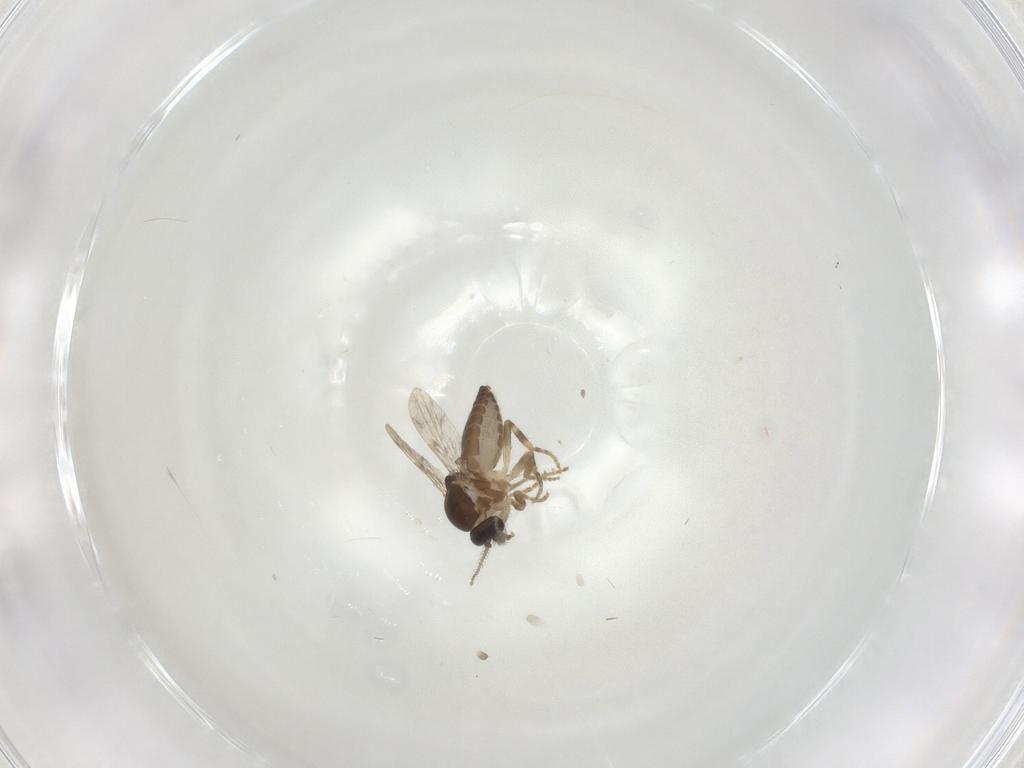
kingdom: Animalia
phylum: Arthropoda
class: Insecta
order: Diptera
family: Ceratopogonidae
